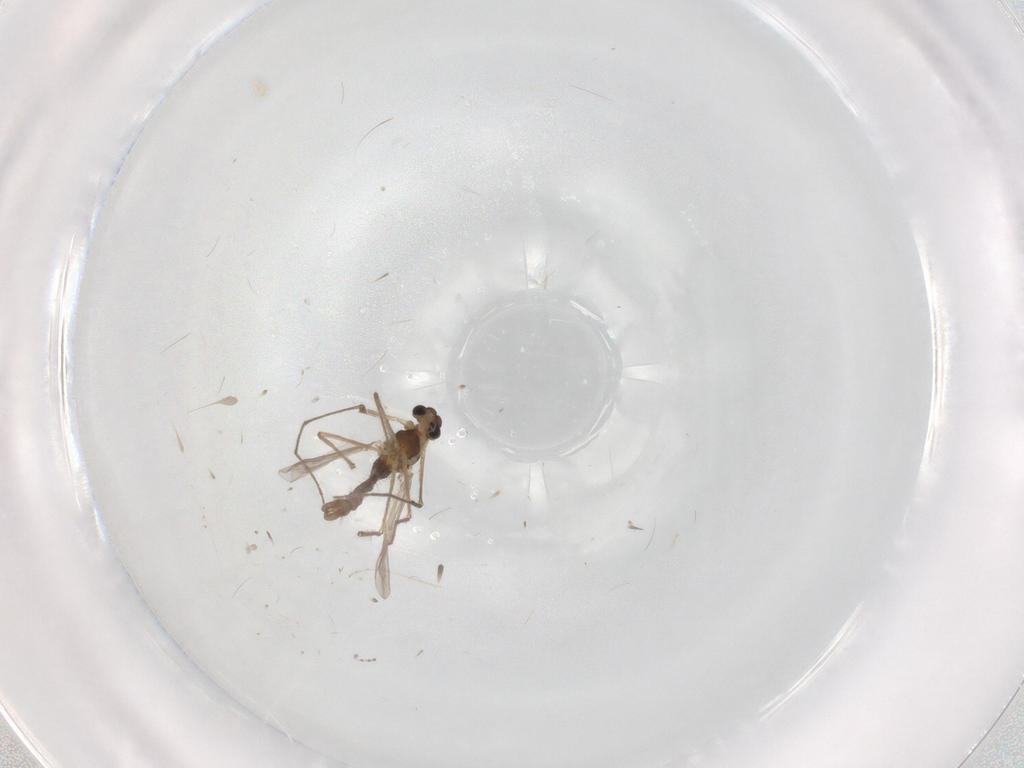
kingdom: Animalia
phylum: Arthropoda
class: Insecta
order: Diptera
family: Chironomidae
